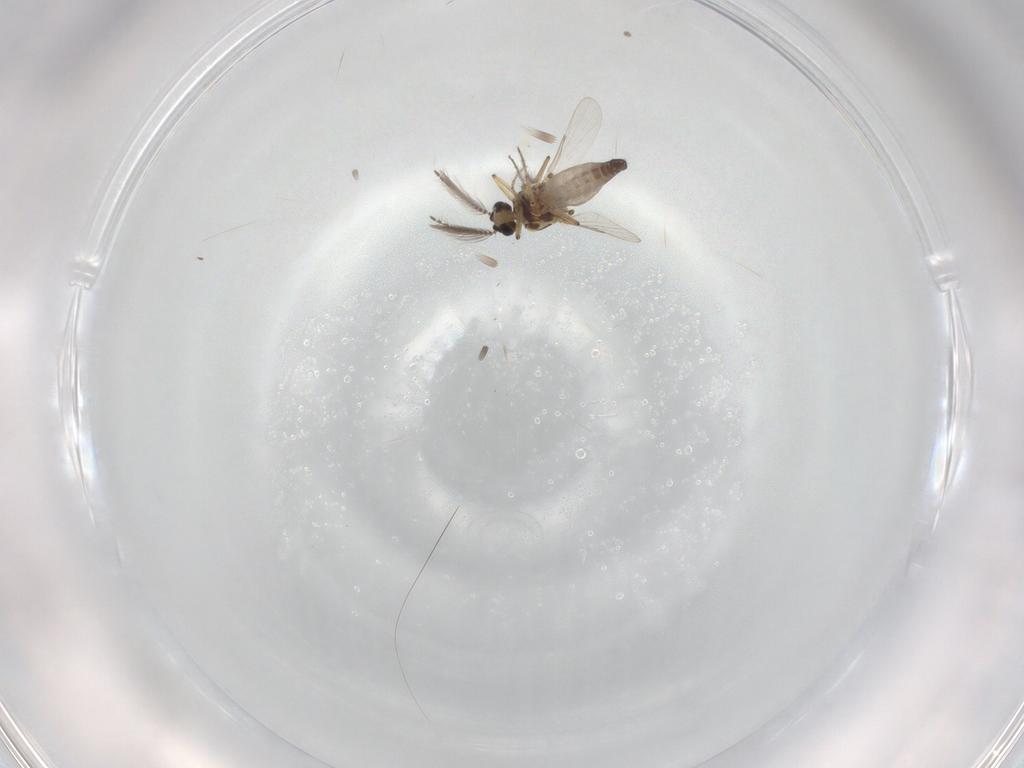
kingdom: Animalia
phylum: Arthropoda
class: Insecta
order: Diptera
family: Ceratopogonidae
